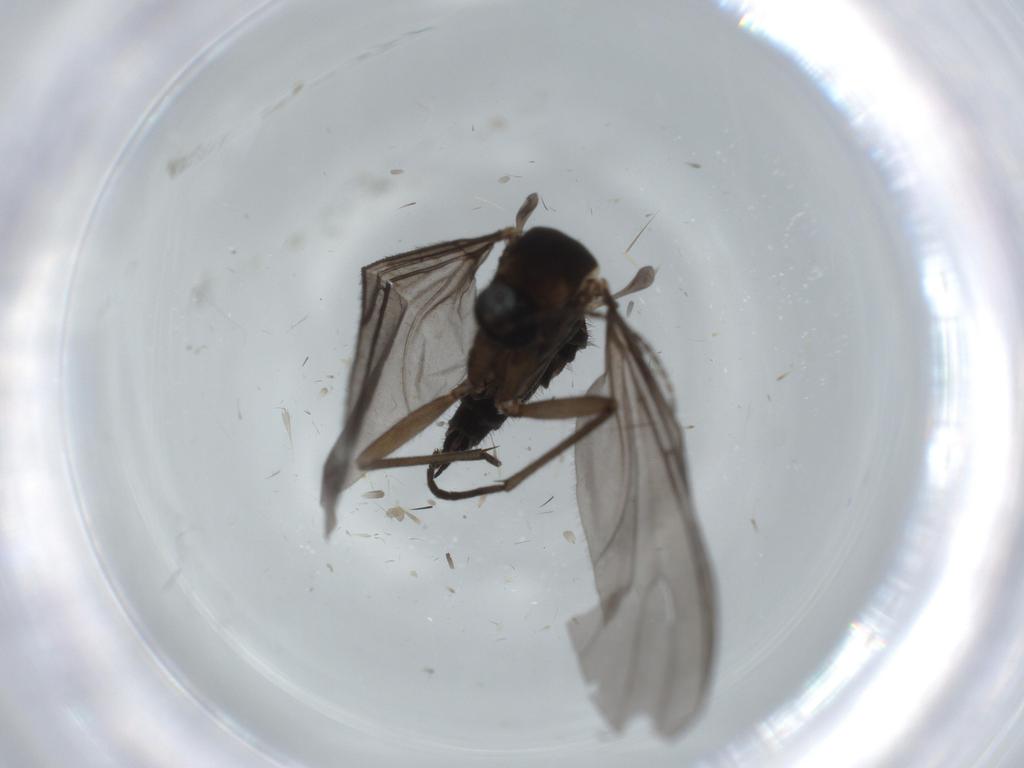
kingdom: Animalia
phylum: Arthropoda
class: Insecta
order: Diptera
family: Sciaridae
